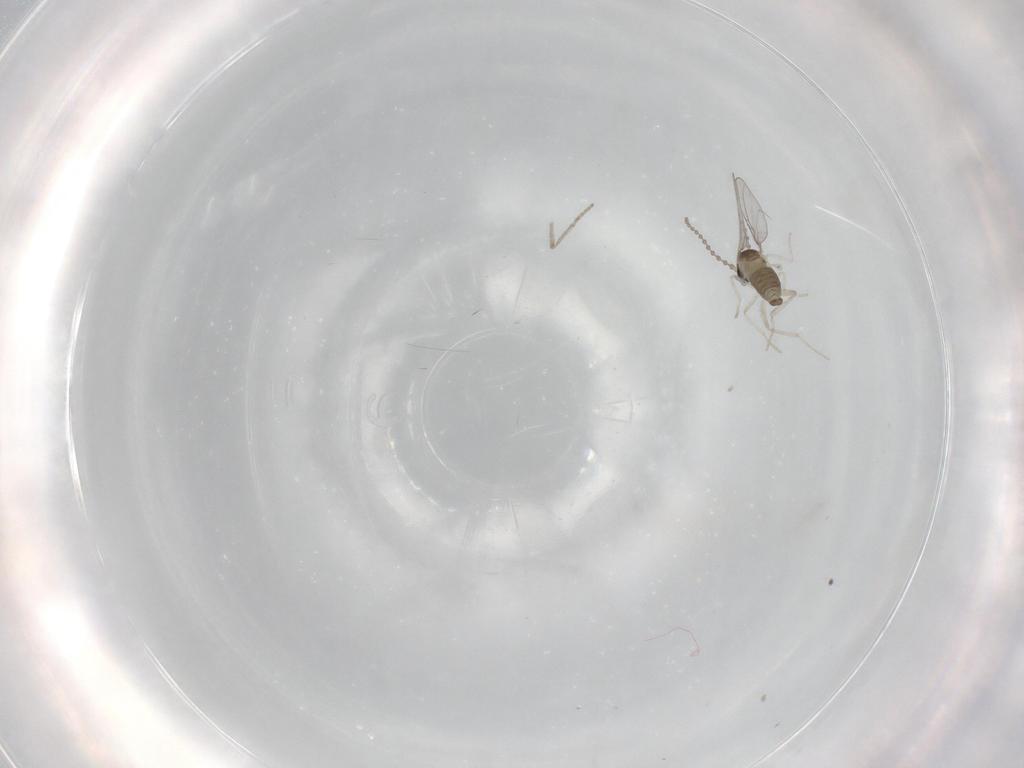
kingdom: Animalia
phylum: Arthropoda
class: Insecta
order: Diptera
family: Cecidomyiidae
